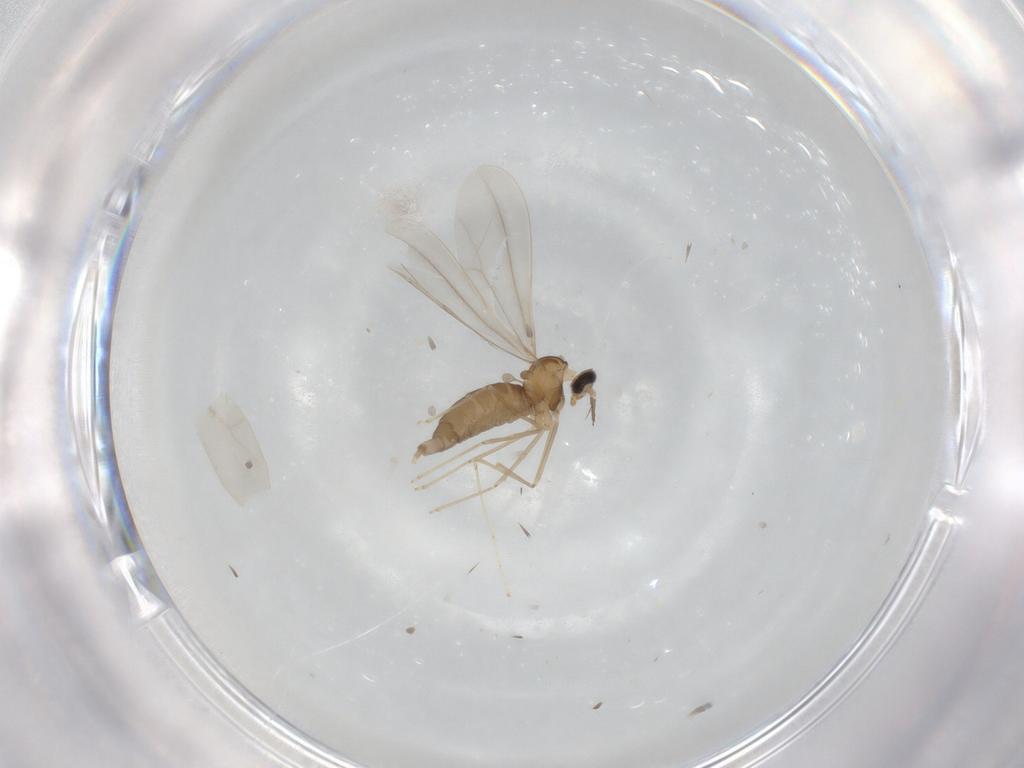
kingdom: Animalia
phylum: Arthropoda
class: Insecta
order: Diptera
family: Cecidomyiidae
